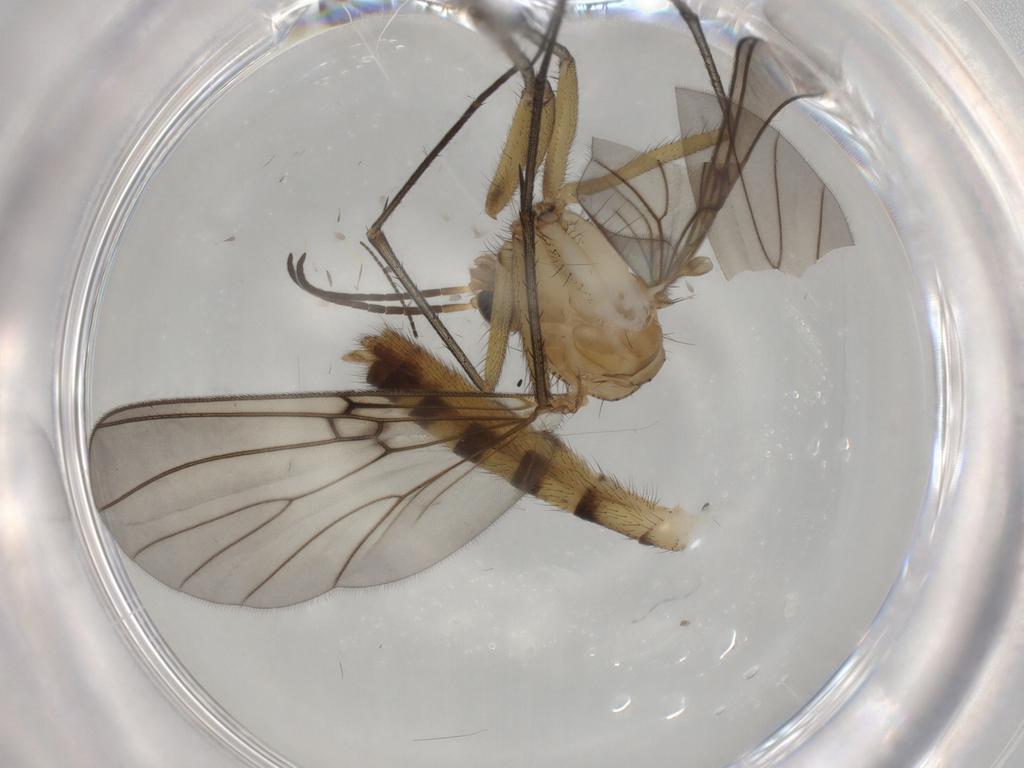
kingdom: Animalia
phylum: Arthropoda
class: Insecta
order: Diptera
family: Mycetophilidae
